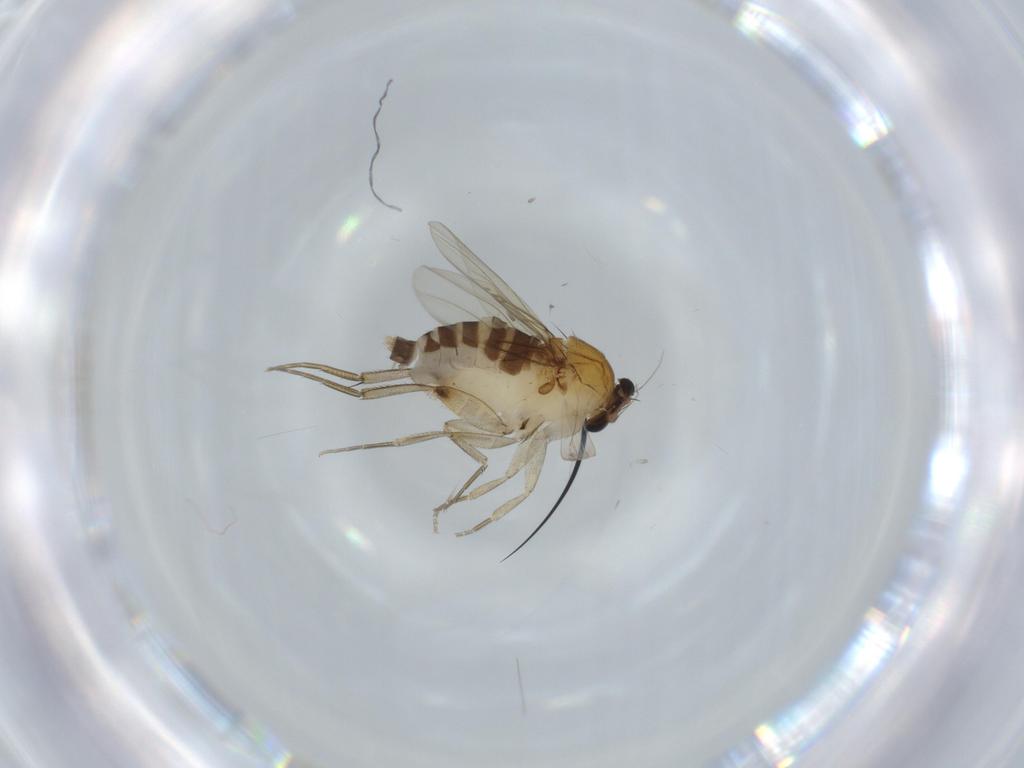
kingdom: Animalia
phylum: Arthropoda
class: Insecta
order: Diptera
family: Phoridae
